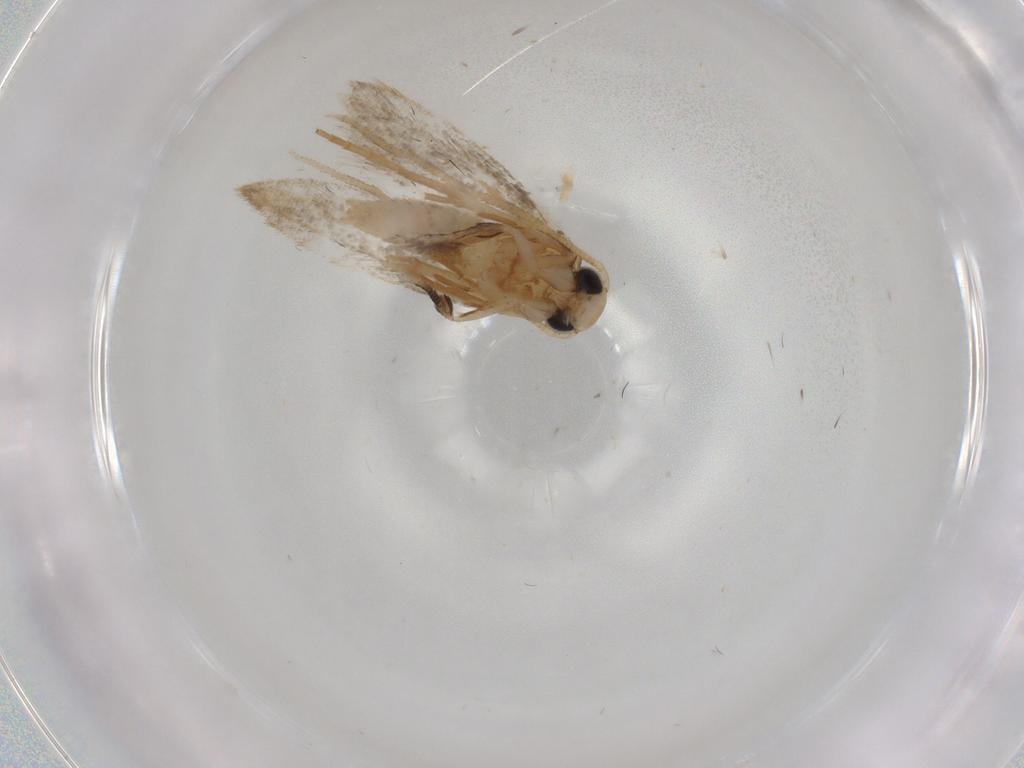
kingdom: Animalia
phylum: Arthropoda
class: Insecta
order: Lepidoptera
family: Cosmopterigidae
